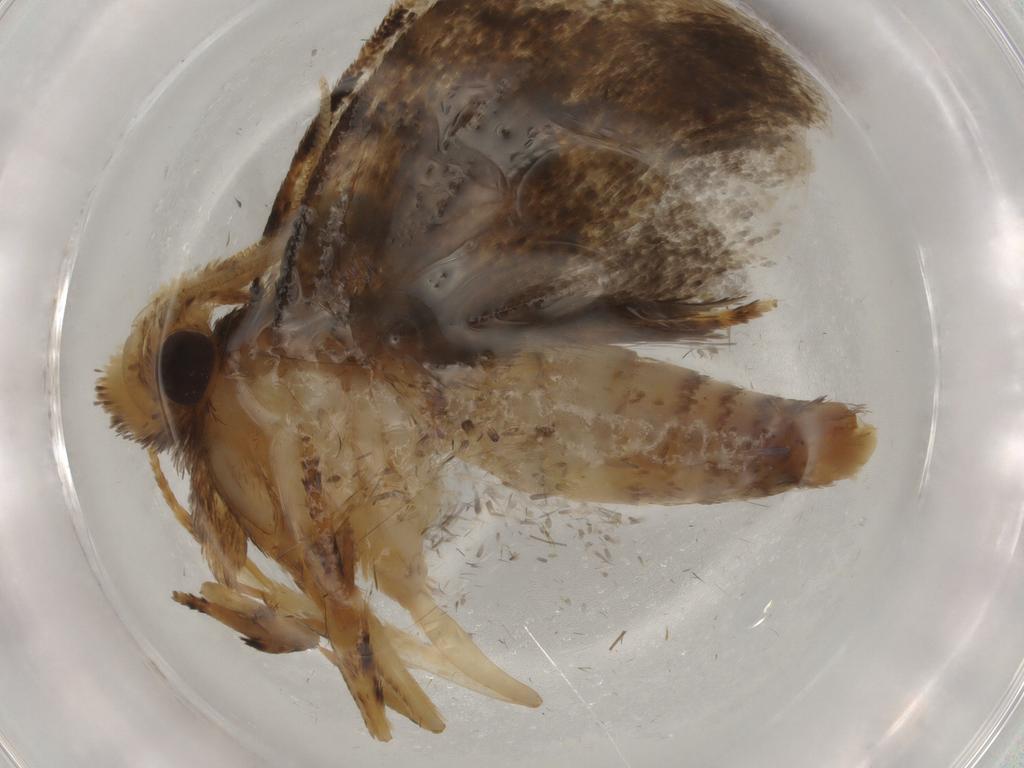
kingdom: Animalia
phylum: Arthropoda
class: Insecta
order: Lepidoptera
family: Tineidae
